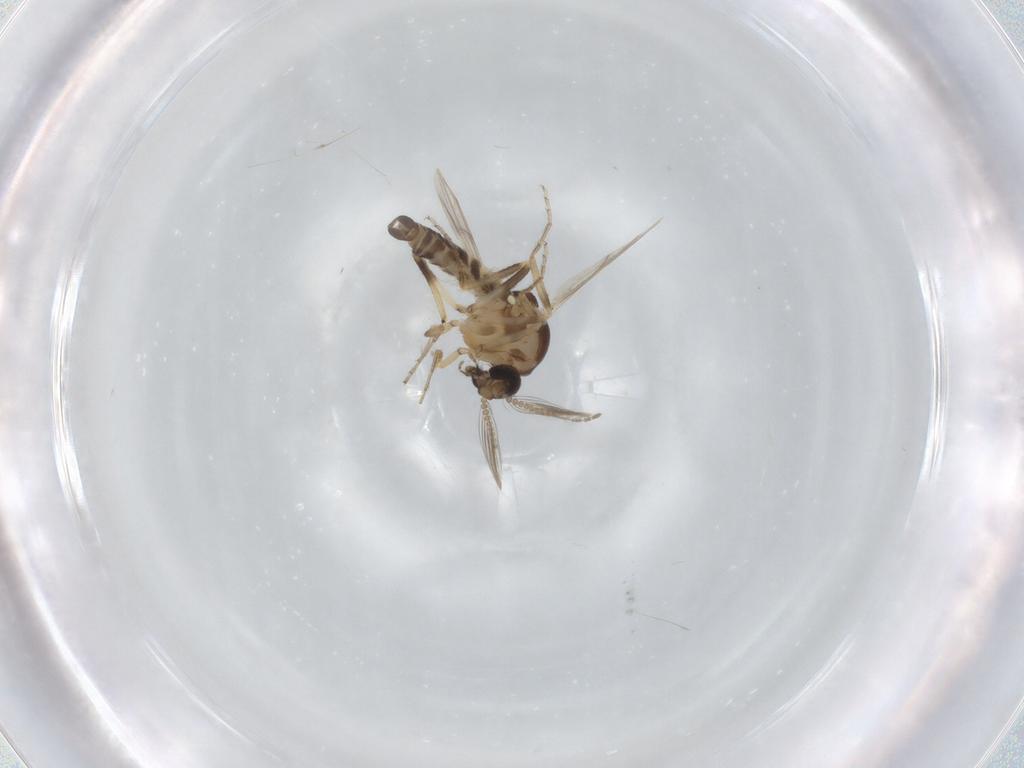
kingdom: Animalia
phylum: Arthropoda
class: Insecta
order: Diptera
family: Ceratopogonidae
